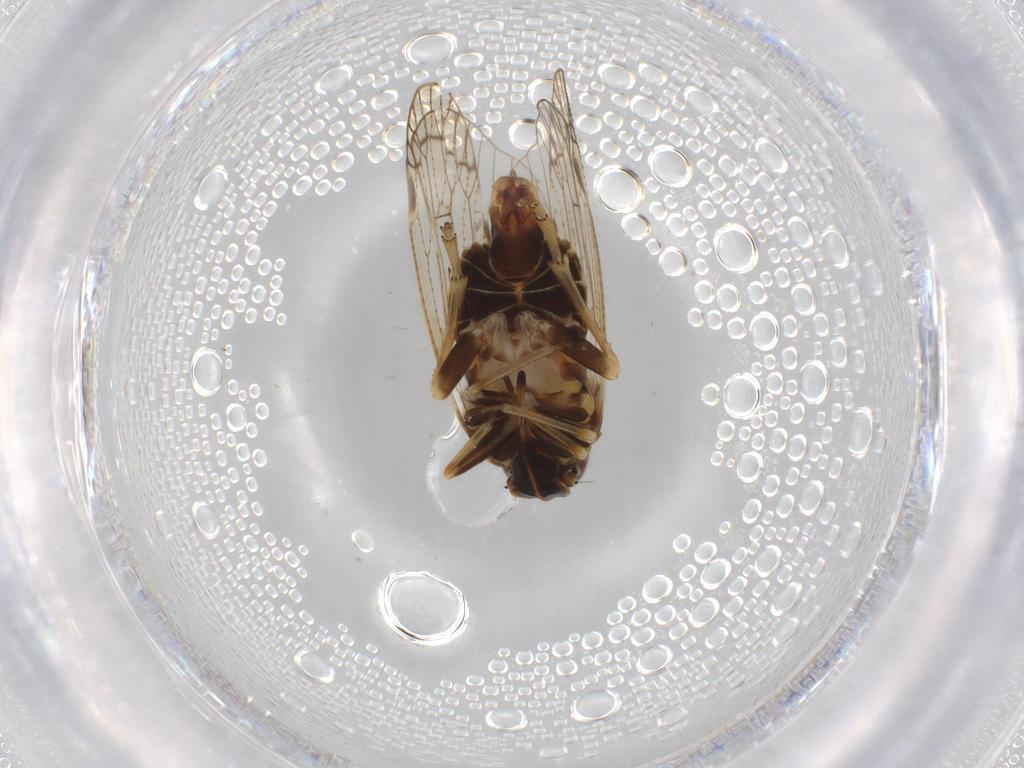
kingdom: Animalia
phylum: Arthropoda
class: Insecta
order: Hemiptera
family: Cixiidae
